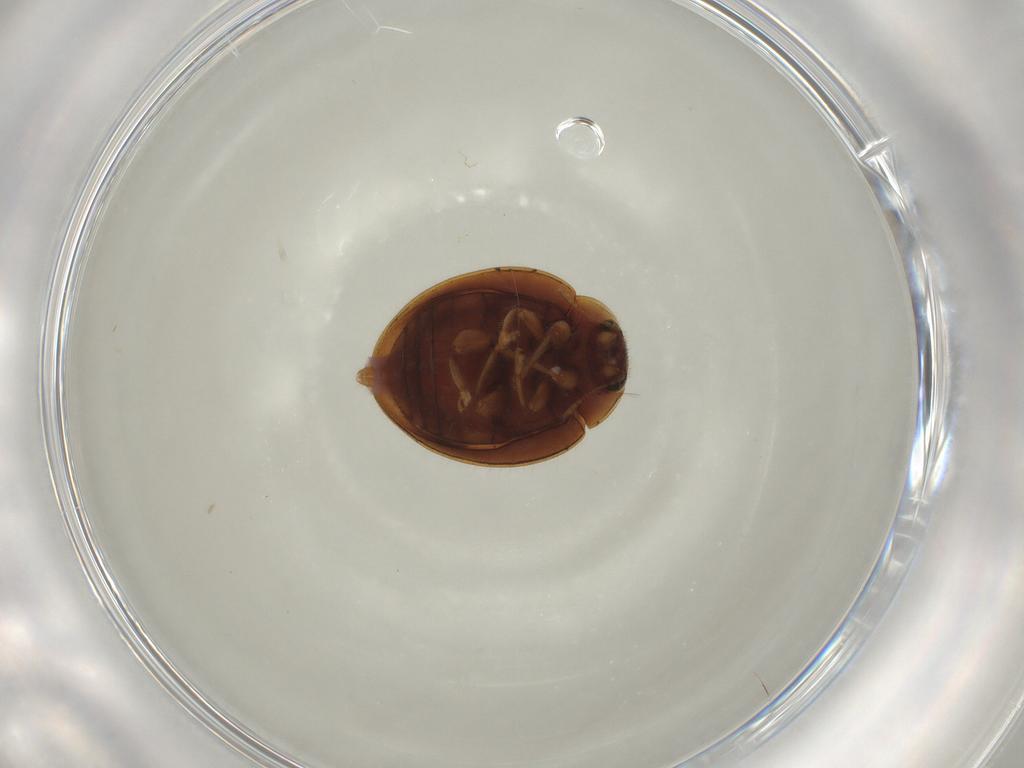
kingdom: Animalia
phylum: Arthropoda
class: Insecta
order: Coleoptera
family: Coccinellidae
